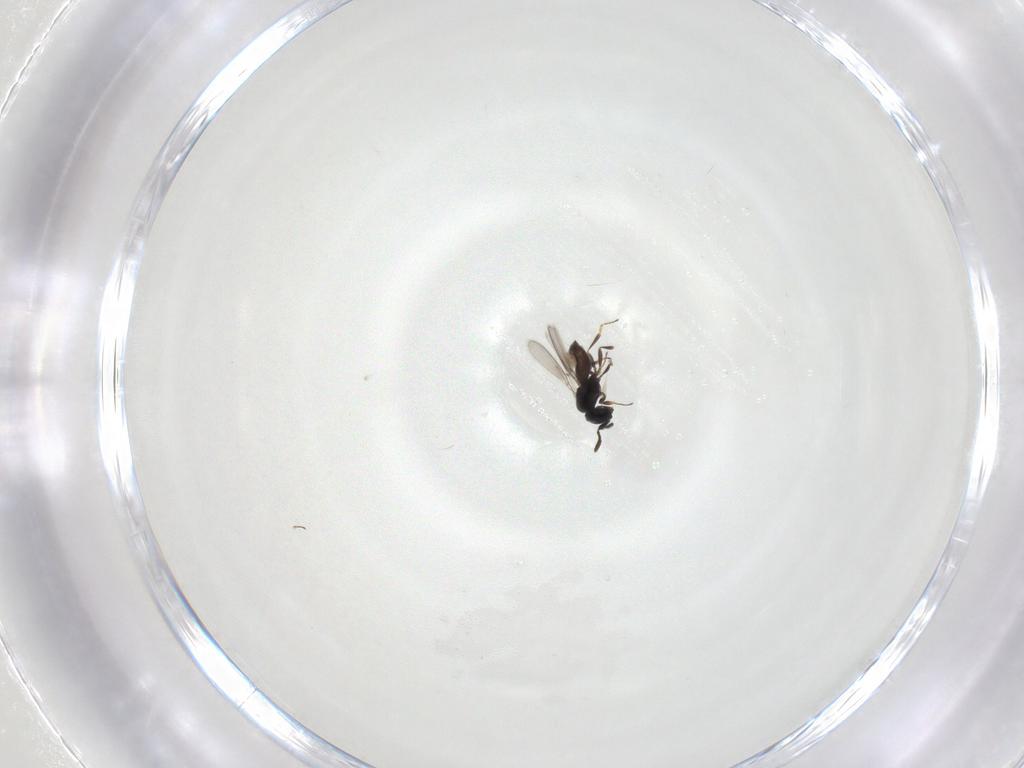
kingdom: Animalia
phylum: Arthropoda
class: Insecta
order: Hymenoptera
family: Scelionidae
